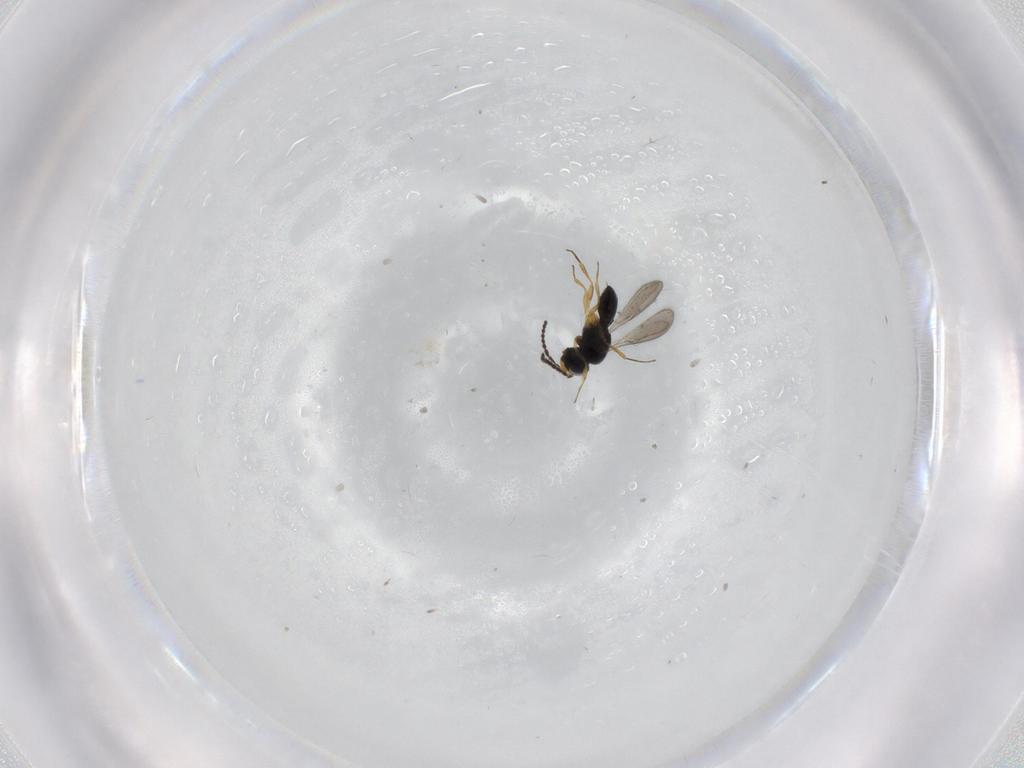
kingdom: Animalia
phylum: Arthropoda
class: Insecta
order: Hymenoptera
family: Scelionidae
